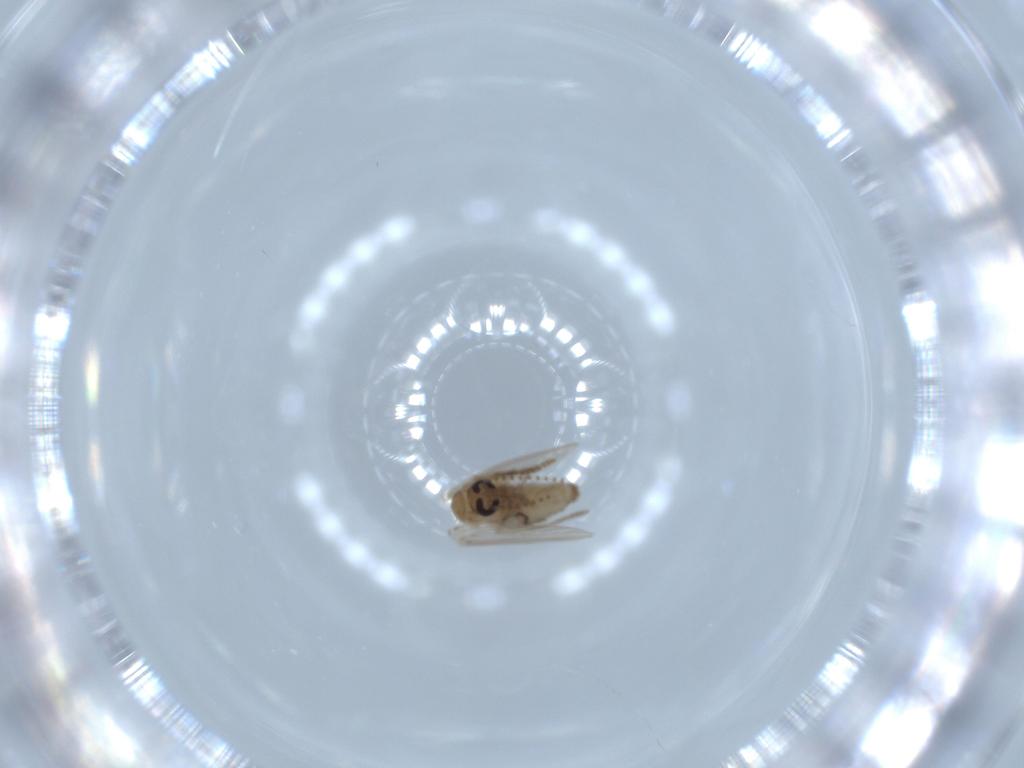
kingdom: Animalia
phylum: Arthropoda
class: Insecta
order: Diptera
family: Psychodidae
